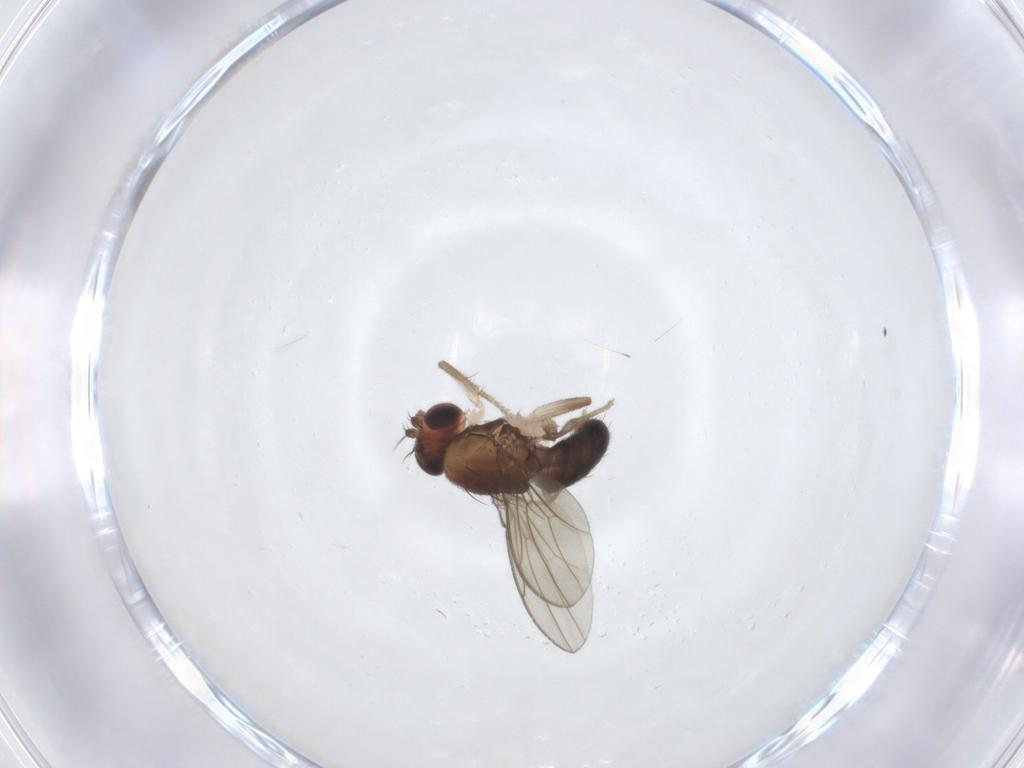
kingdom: Animalia
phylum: Arthropoda
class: Insecta
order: Diptera
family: Drosophilidae
